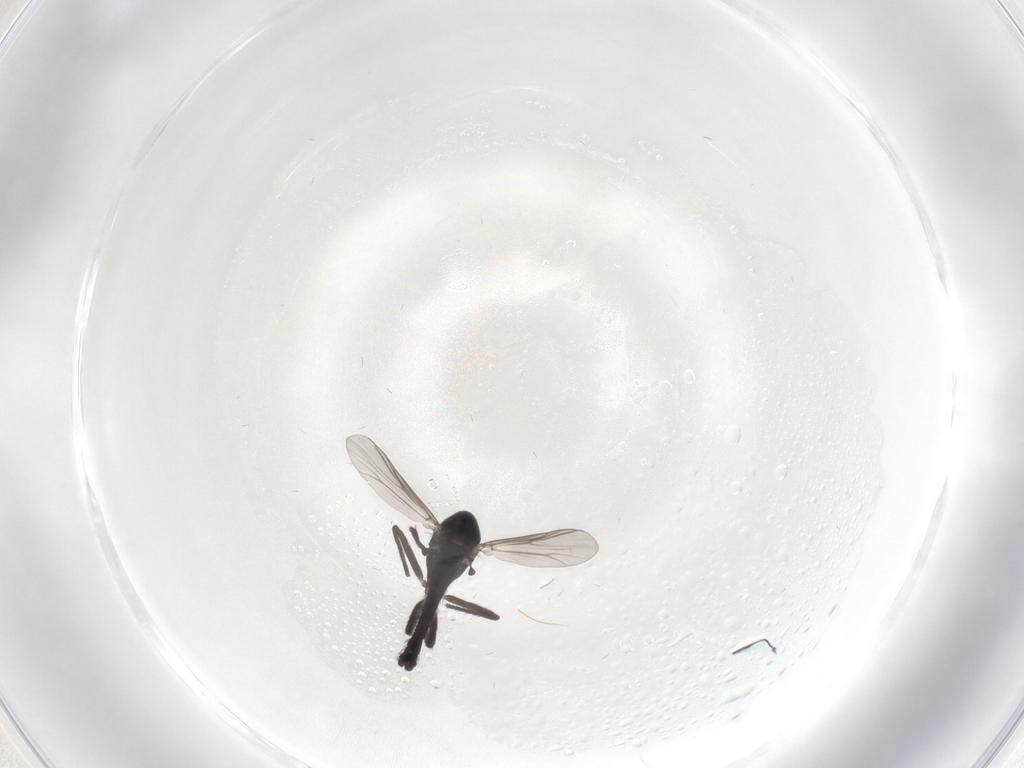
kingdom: Animalia
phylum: Arthropoda
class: Insecta
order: Diptera
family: Chironomidae
